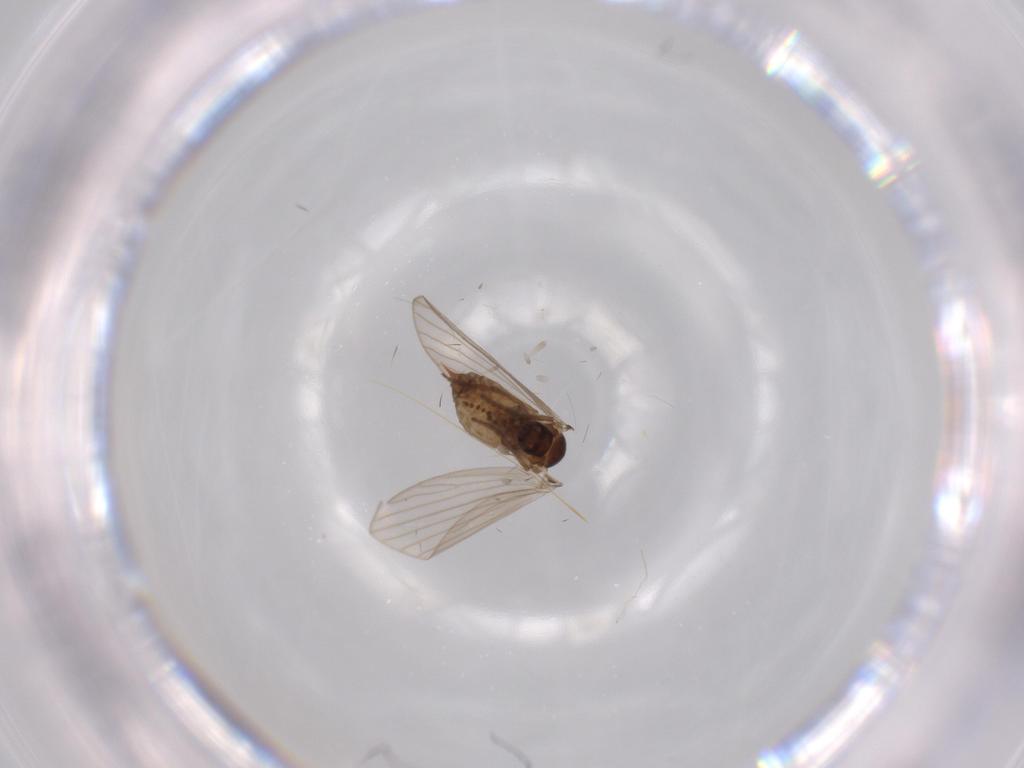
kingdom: Animalia
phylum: Arthropoda
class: Insecta
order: Diptera
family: Psychodidae
